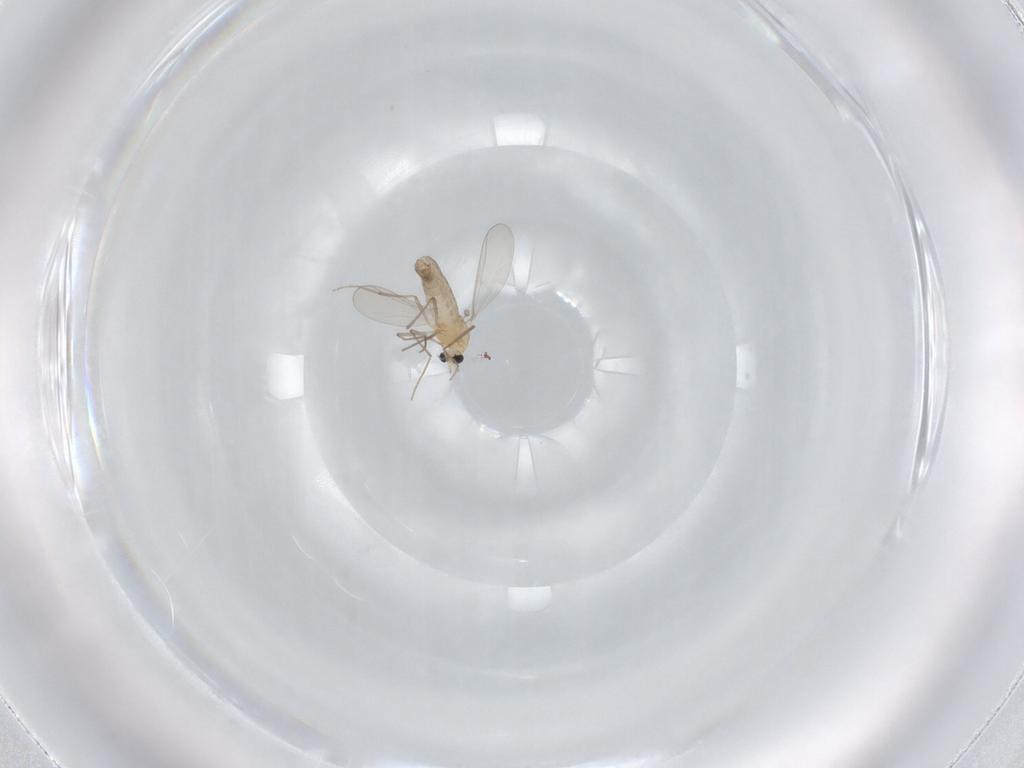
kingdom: Animalia
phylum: Arthropoda
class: Insecta
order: Diptera
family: Chironomidae
